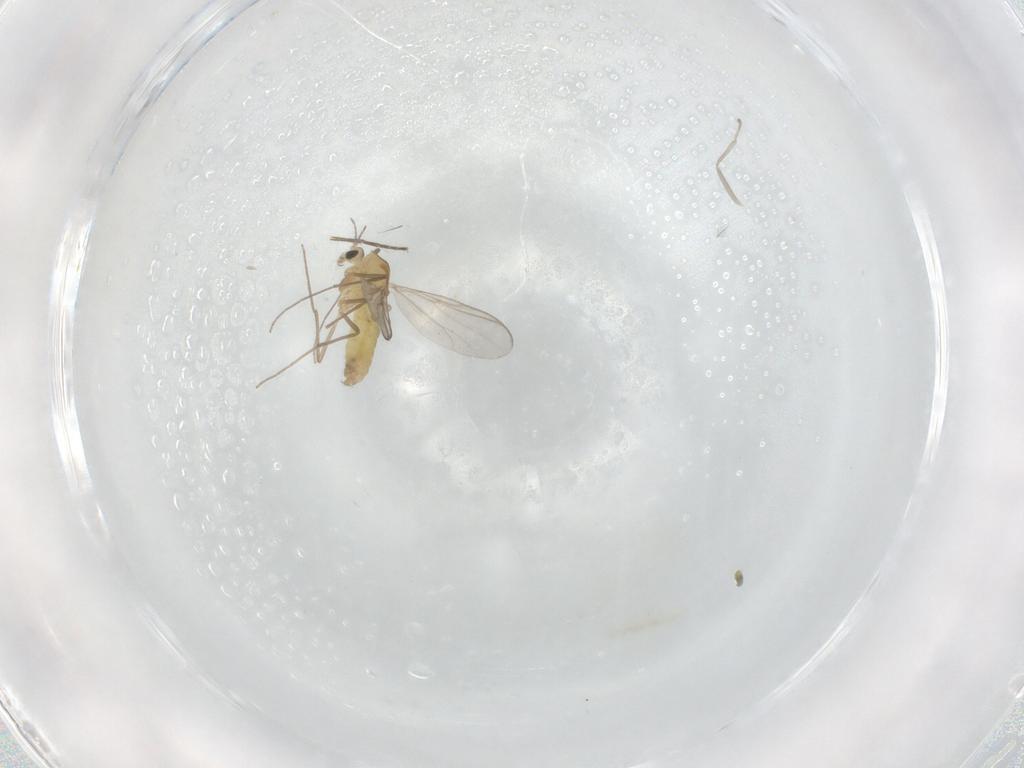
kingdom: Animalia
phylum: Arthropoda
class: Insecta
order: Diptera
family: Chironomidae
